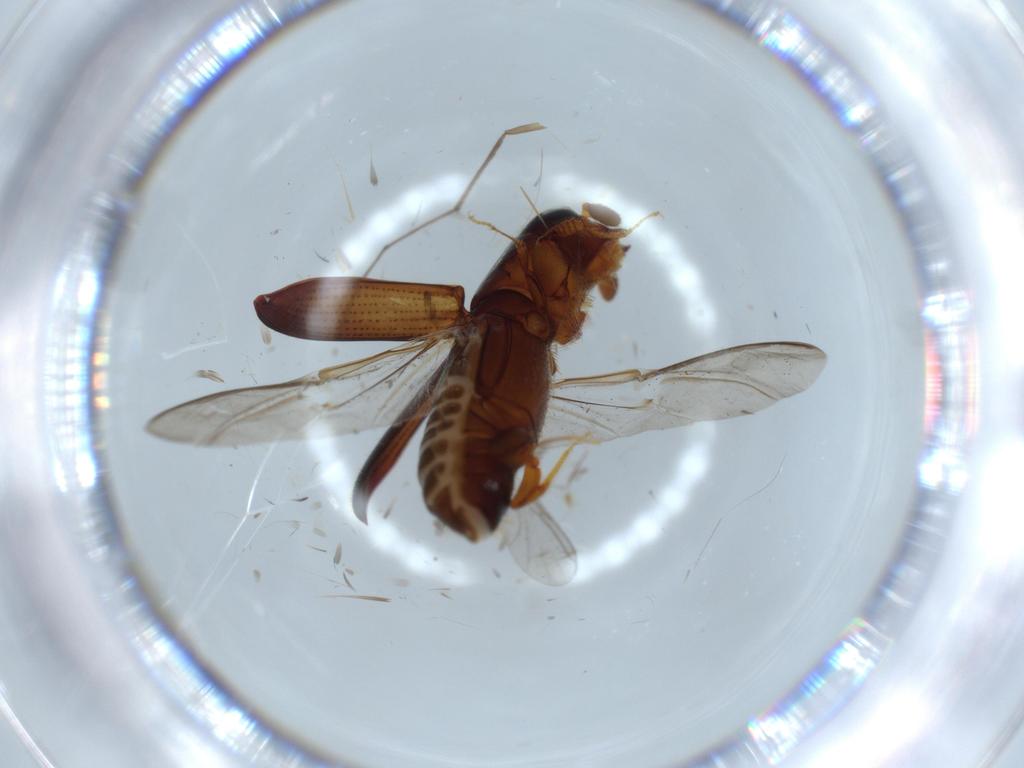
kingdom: Animalia
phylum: Arthropoda
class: Insecta
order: Coleoptera
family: Curculionidae
